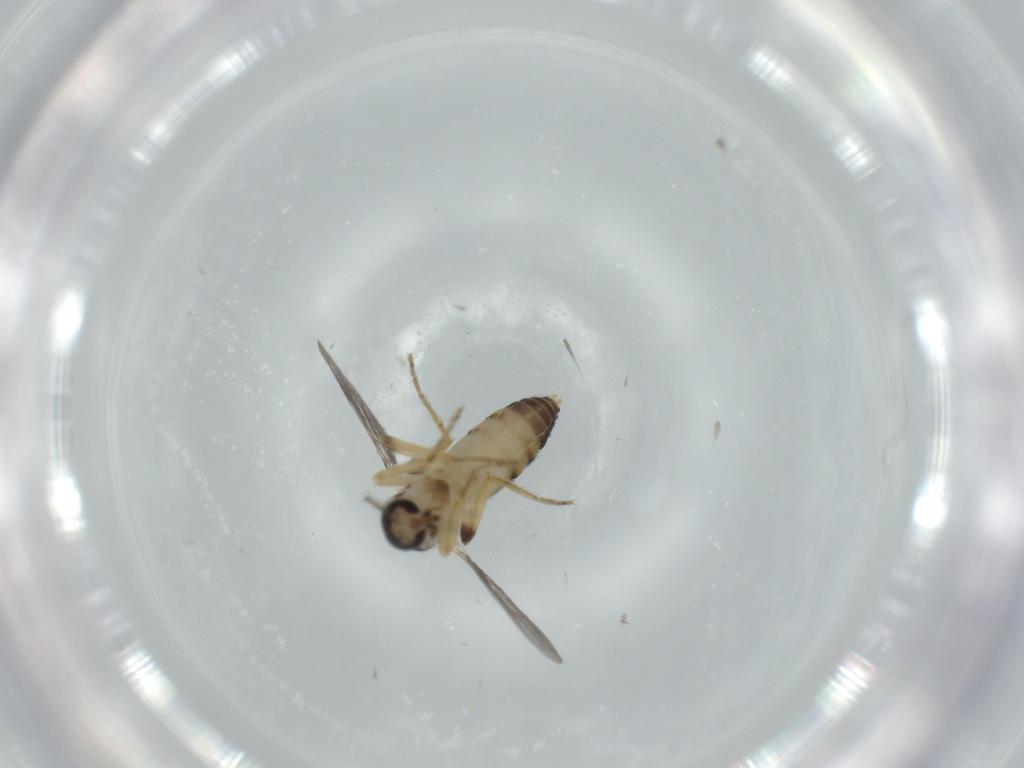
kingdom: Animalia
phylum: Arthropoda
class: Insecta
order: Diptera
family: Ceratopogonidae
